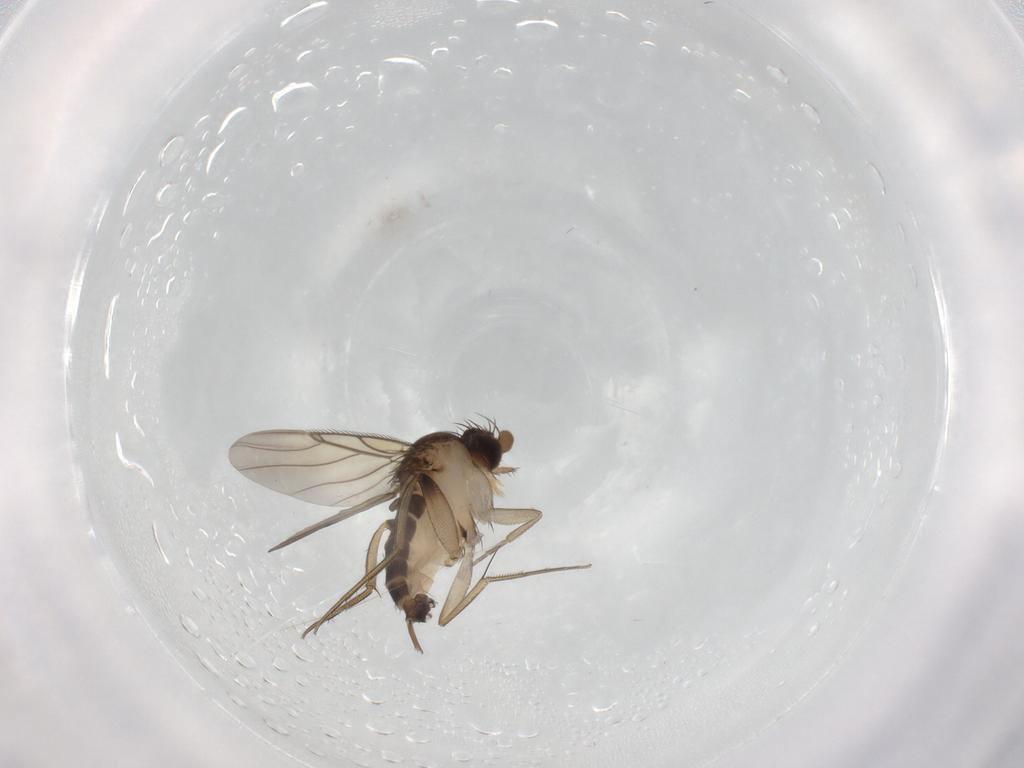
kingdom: Animalia
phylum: Arthropoda
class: Insecta
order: Diptera
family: Phoridae
